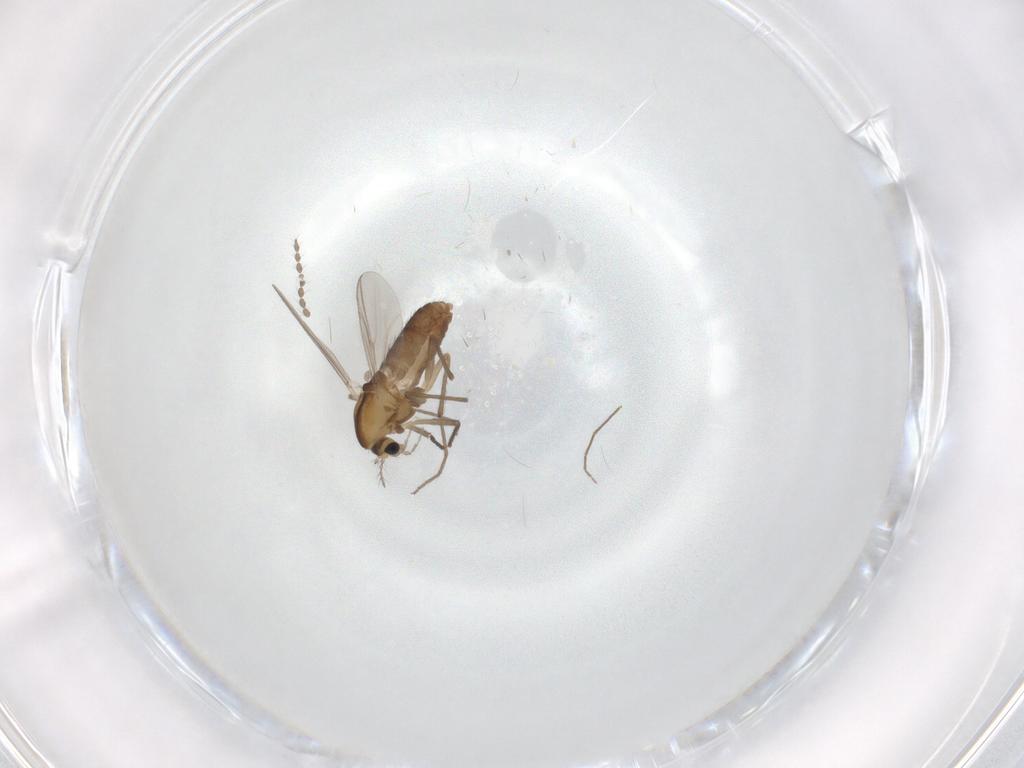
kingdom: Animalia
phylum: Arthropoda
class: Insecta
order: Diptera
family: Chironomidae
